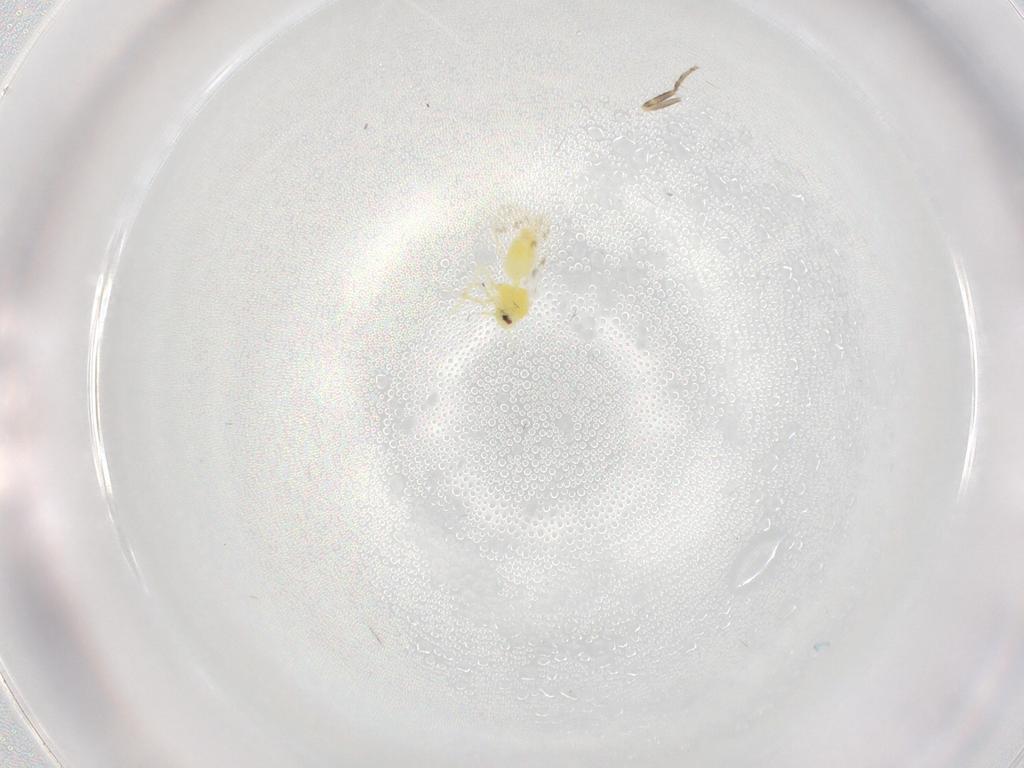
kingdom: Animalia
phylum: Arthropoda
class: Insecta
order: Hemiptera
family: Aleyrodidae
